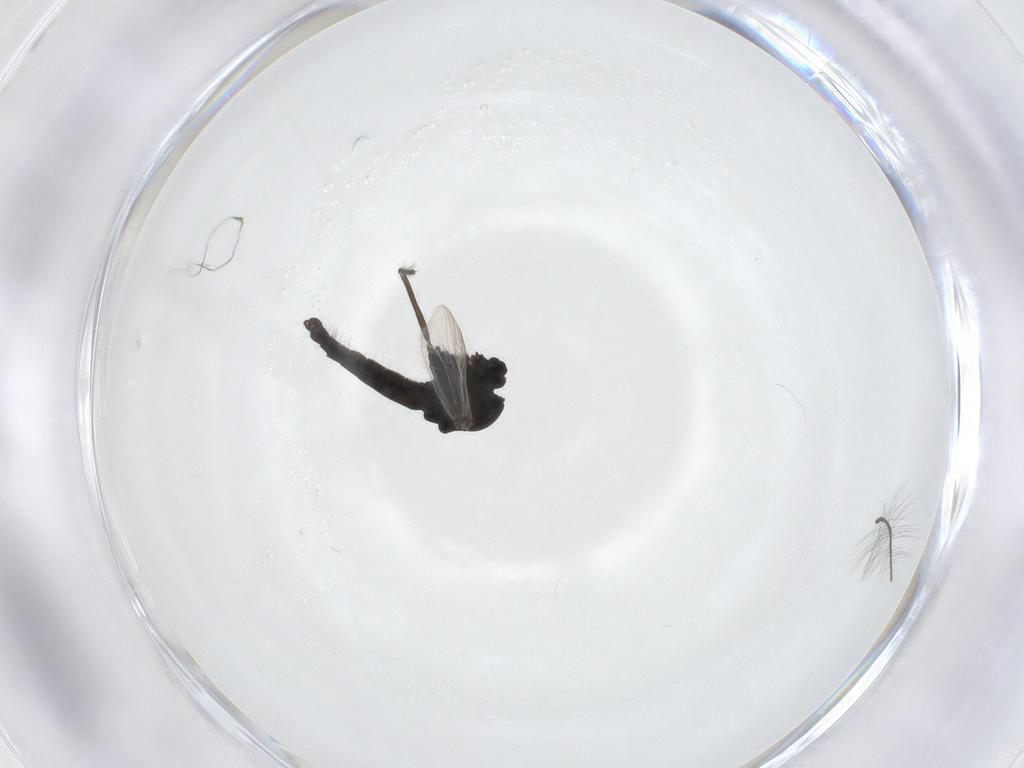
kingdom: Animalia
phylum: Arthropoda
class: Insecta
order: Diptera
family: Chironomidae
